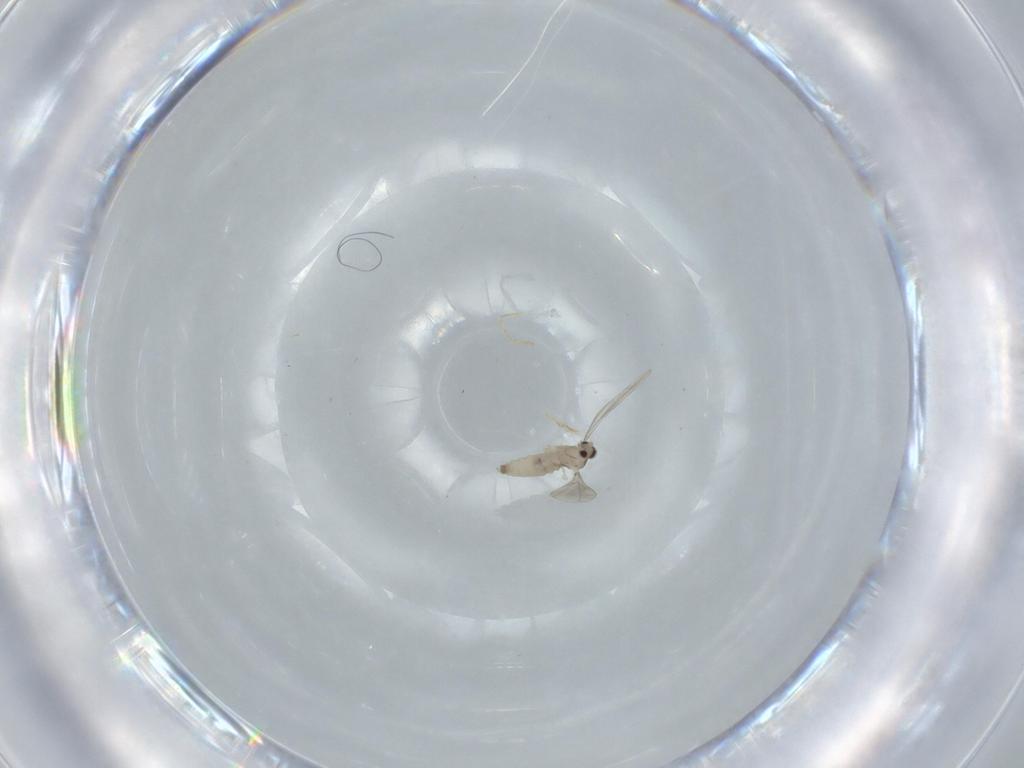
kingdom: Animalia
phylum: Arthropoda
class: Insecta
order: Diptera
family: Cecidomyiidae
